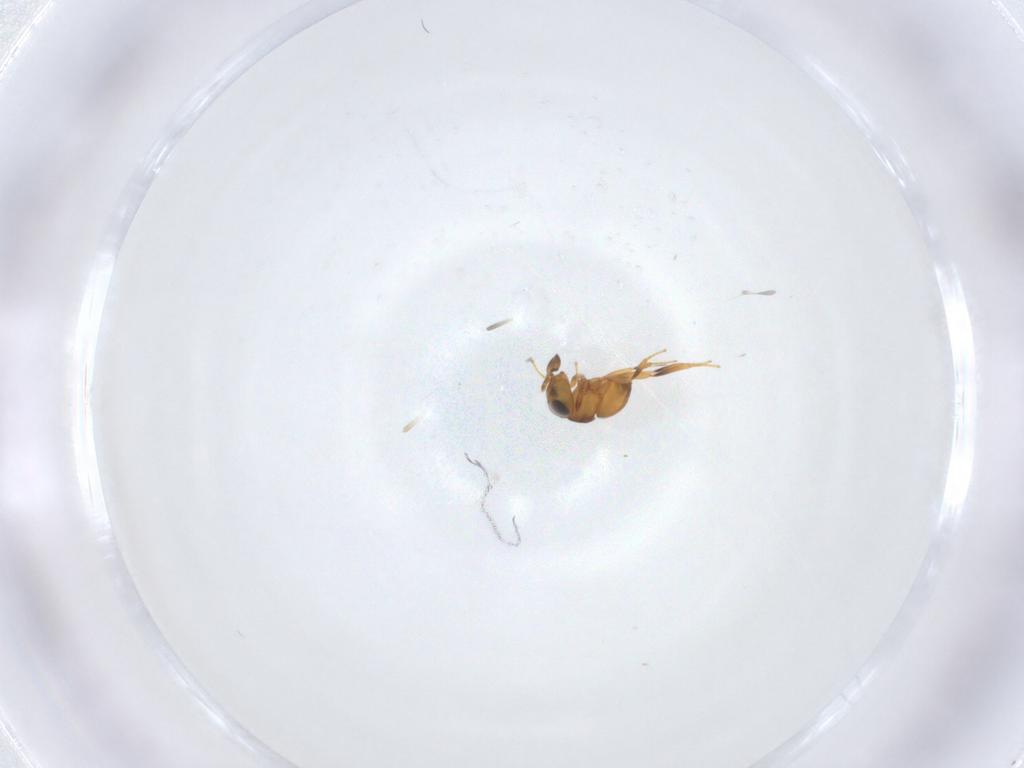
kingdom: Animalia
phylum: Arthropoda
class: Insecta
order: Hymenoptera
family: Scelionidae
